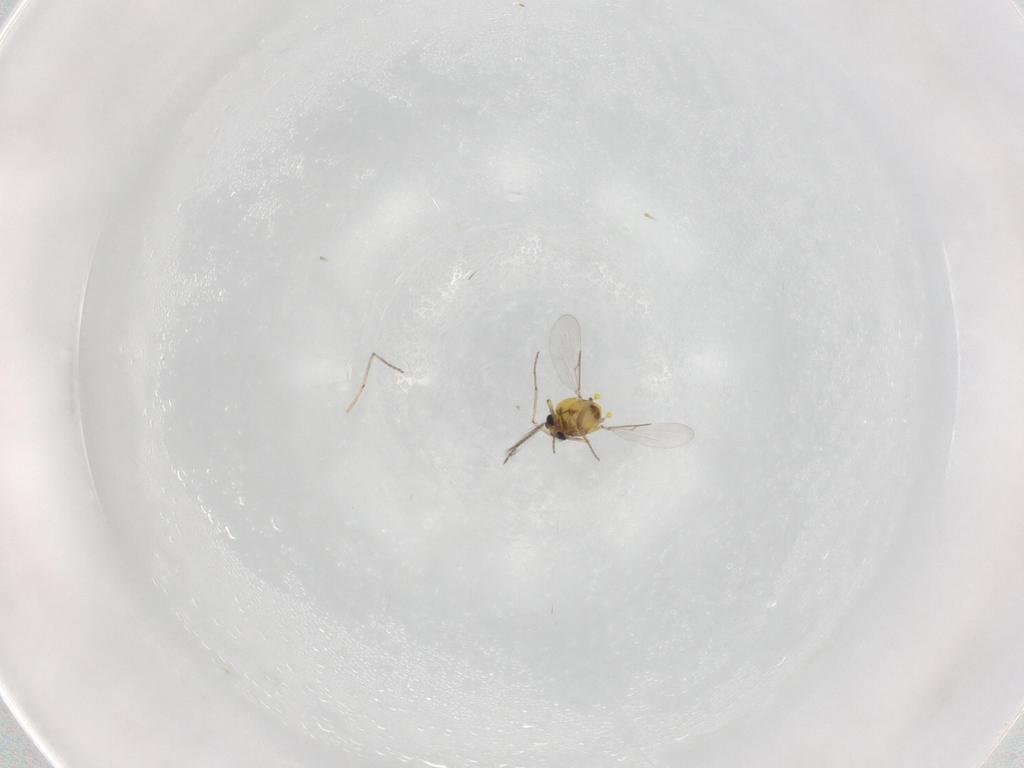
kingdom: Animalia
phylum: Arthropoda
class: Insecta
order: Diptera
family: Ceratopogonidae
